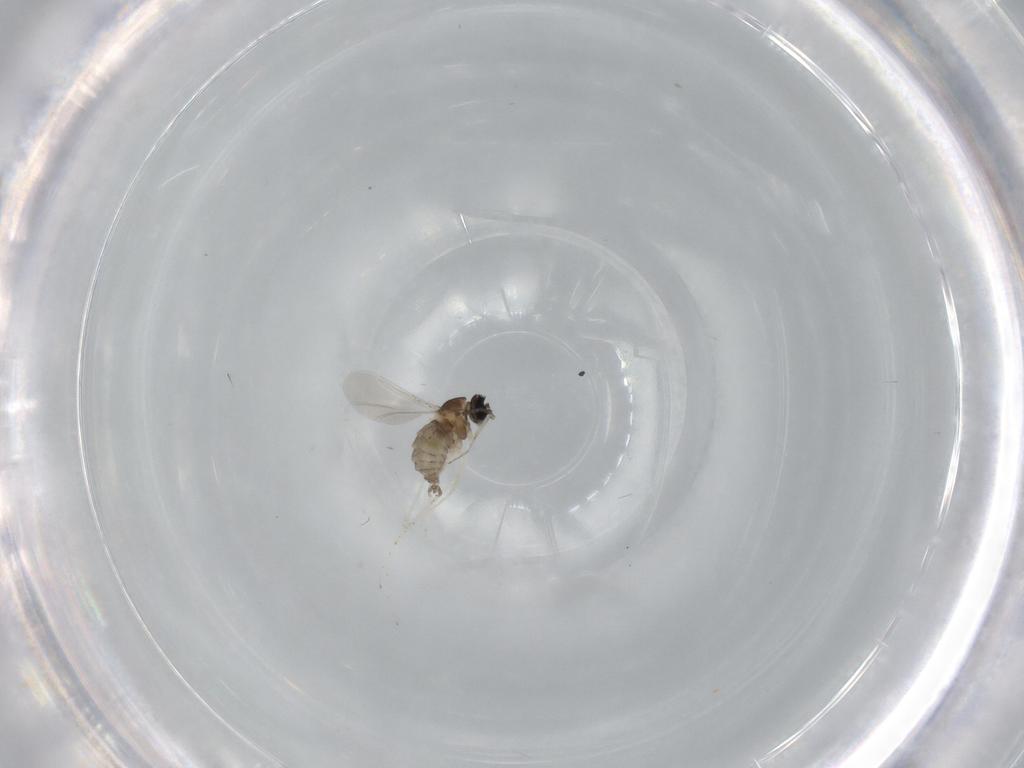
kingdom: Animalia
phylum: Arthropoda
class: Insecta
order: Diptera
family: Cecidomyiidae
